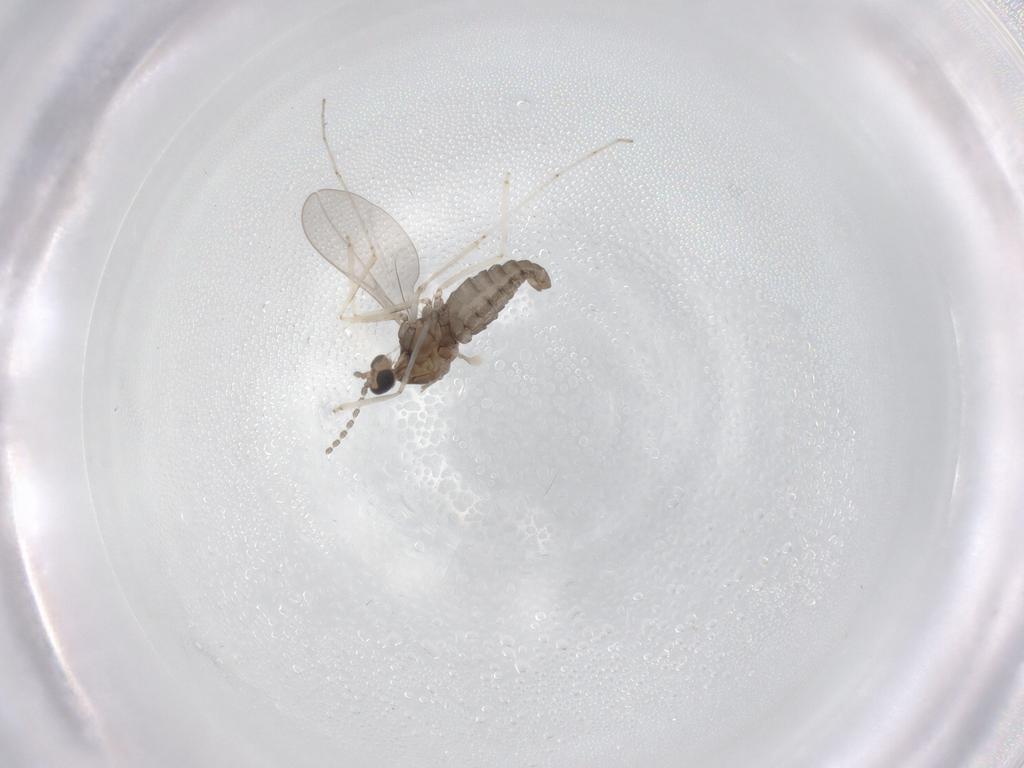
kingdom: Animalia
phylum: Arthropoda
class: Insecta
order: Diptera
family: Cecidomyiidae
